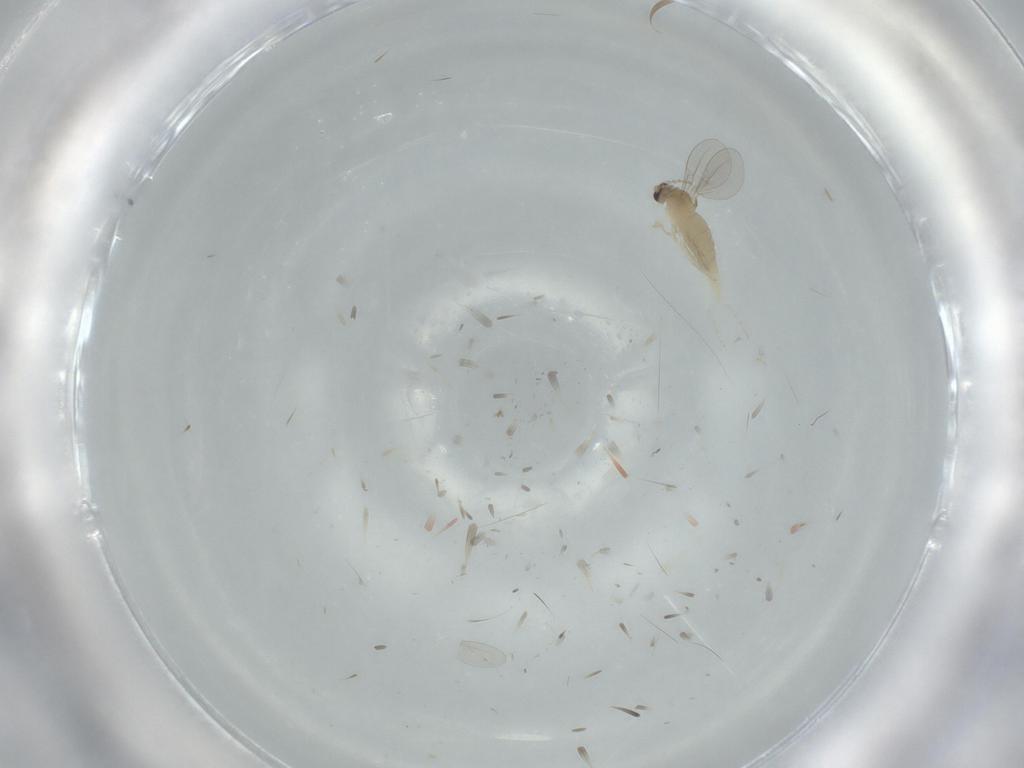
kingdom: Animalia
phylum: Arthropoda
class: Insecta
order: Diptera
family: Cecidomyiidae
